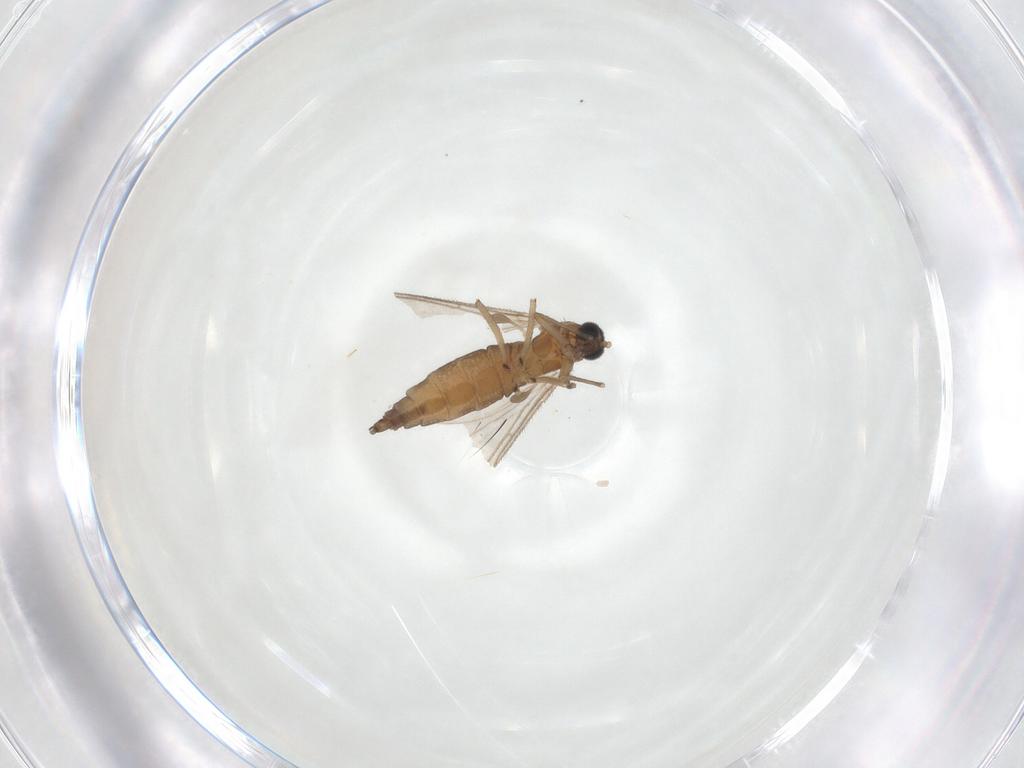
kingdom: Animalia
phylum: Arthropoda
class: Insecta
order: Diptera
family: Sciaridae
